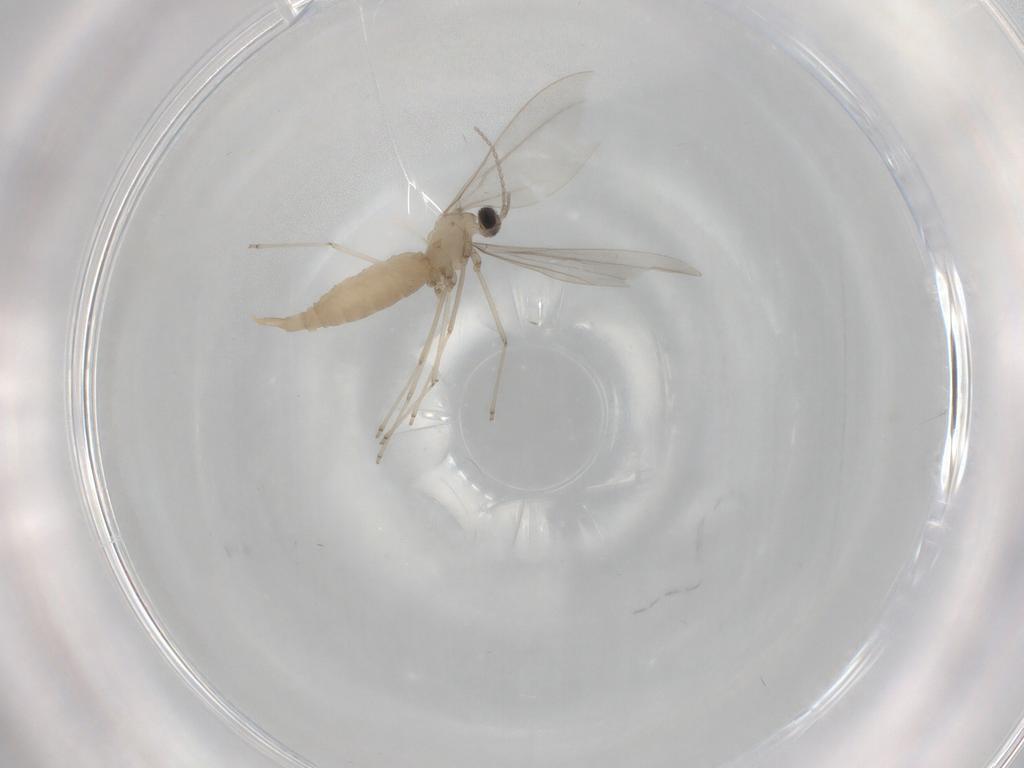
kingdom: Animalia
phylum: Arthropoda
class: Insecta
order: Diptera
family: Cecidomyiidae
